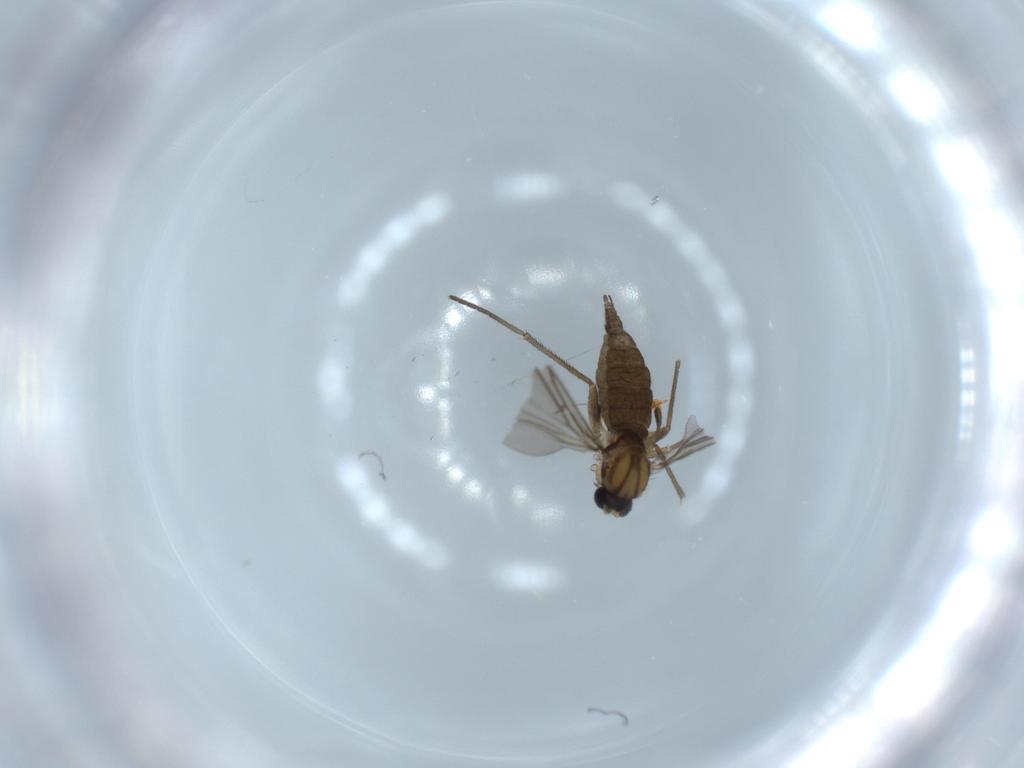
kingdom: Animalia
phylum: Arthropoda
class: Insecta
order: Diptera
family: Sciaridae
